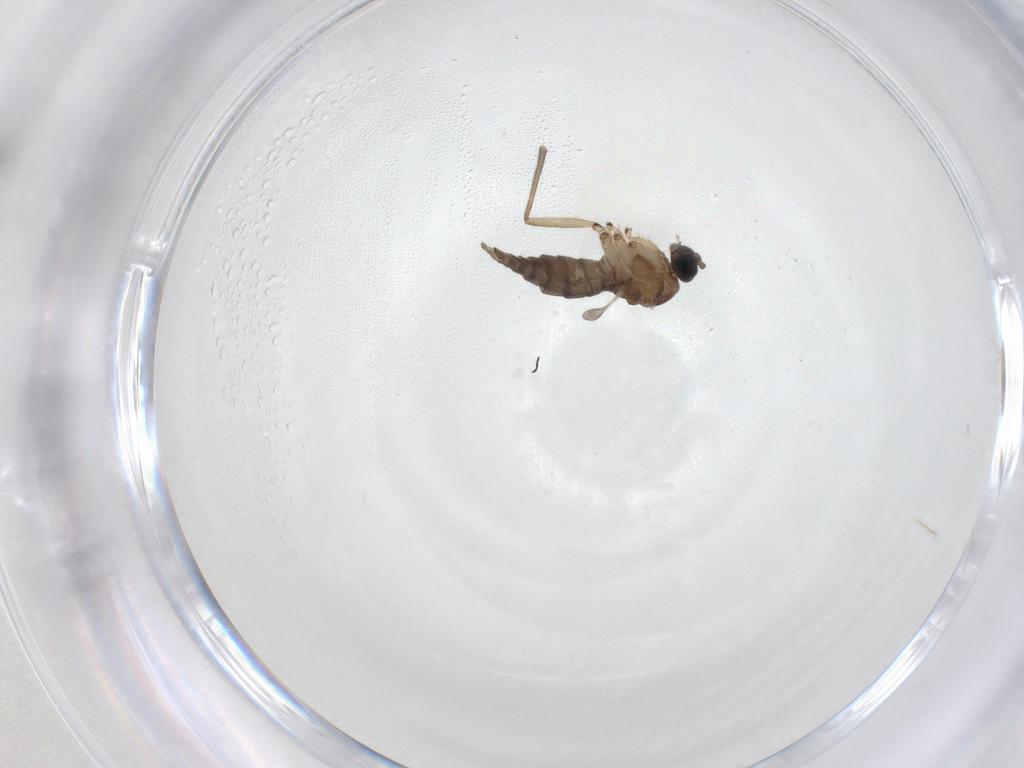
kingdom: Animalia
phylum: Arthropoda
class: Insecta
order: Diptera
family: Sciaridae
